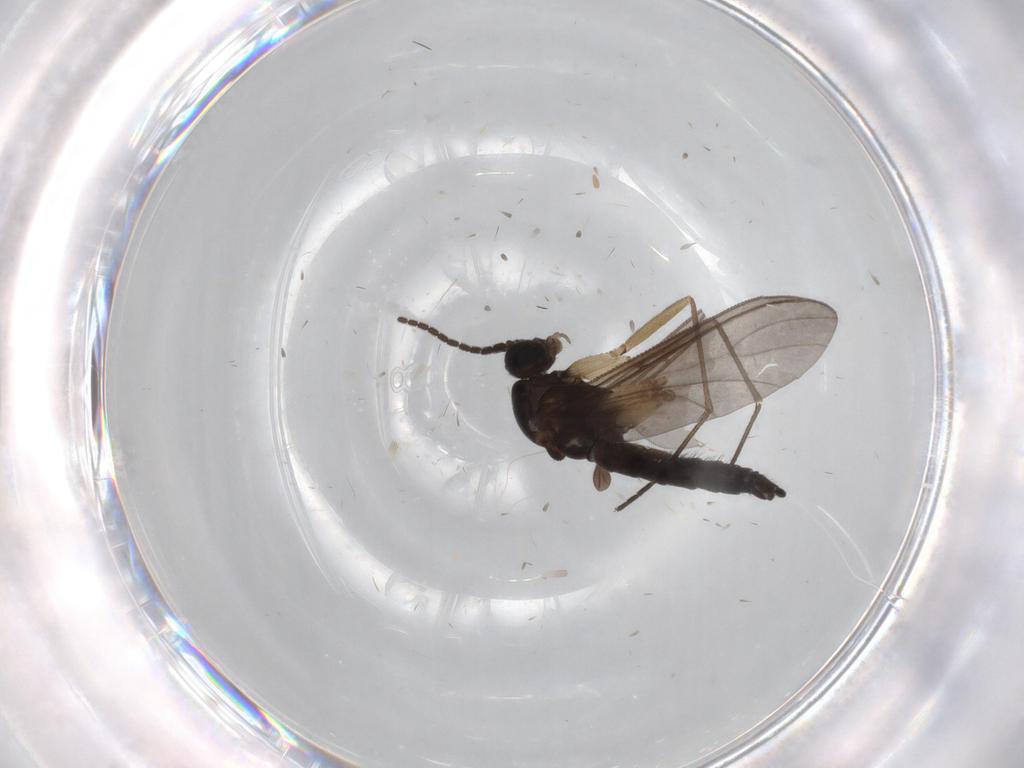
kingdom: Animalia
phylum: Arthropoda
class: Insecta
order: Diptera
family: Sciaridae
